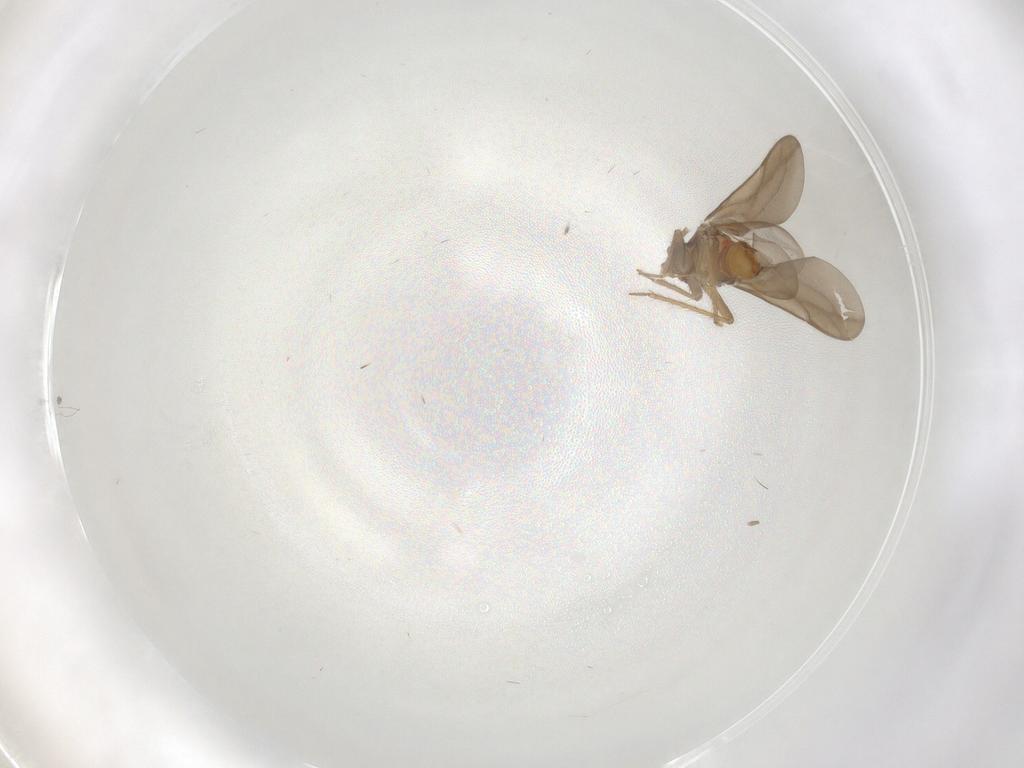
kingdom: Animalia
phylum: Arthropoda
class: Insecta
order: Hemiptera
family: Ceratocombidae
